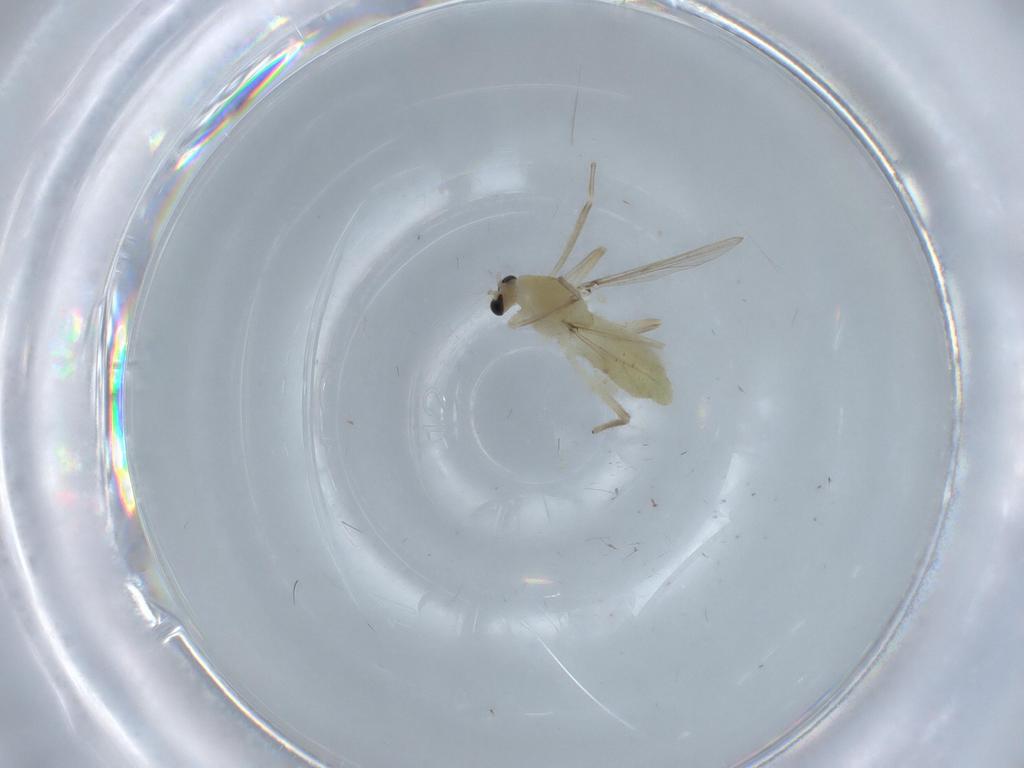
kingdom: Animalia
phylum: Arthropoda
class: Insecta
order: Diptera
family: Chironomidae
